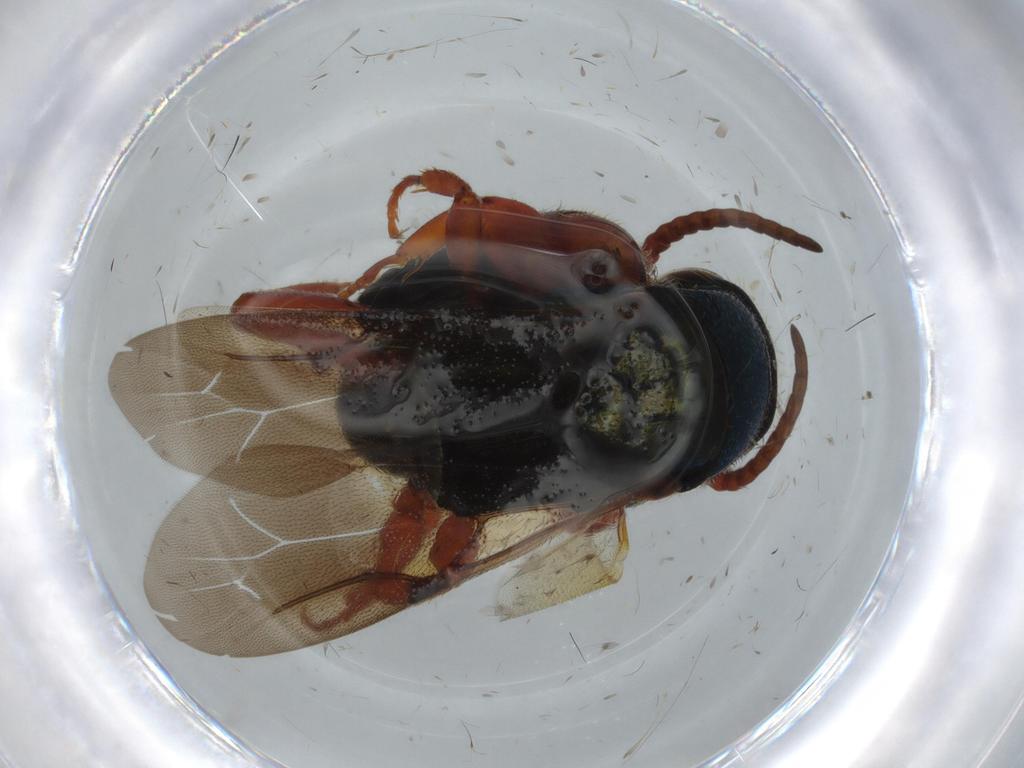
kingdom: Animalia
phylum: Arthropoda
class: Insecta
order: Hymenoptera
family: Bethylidae
